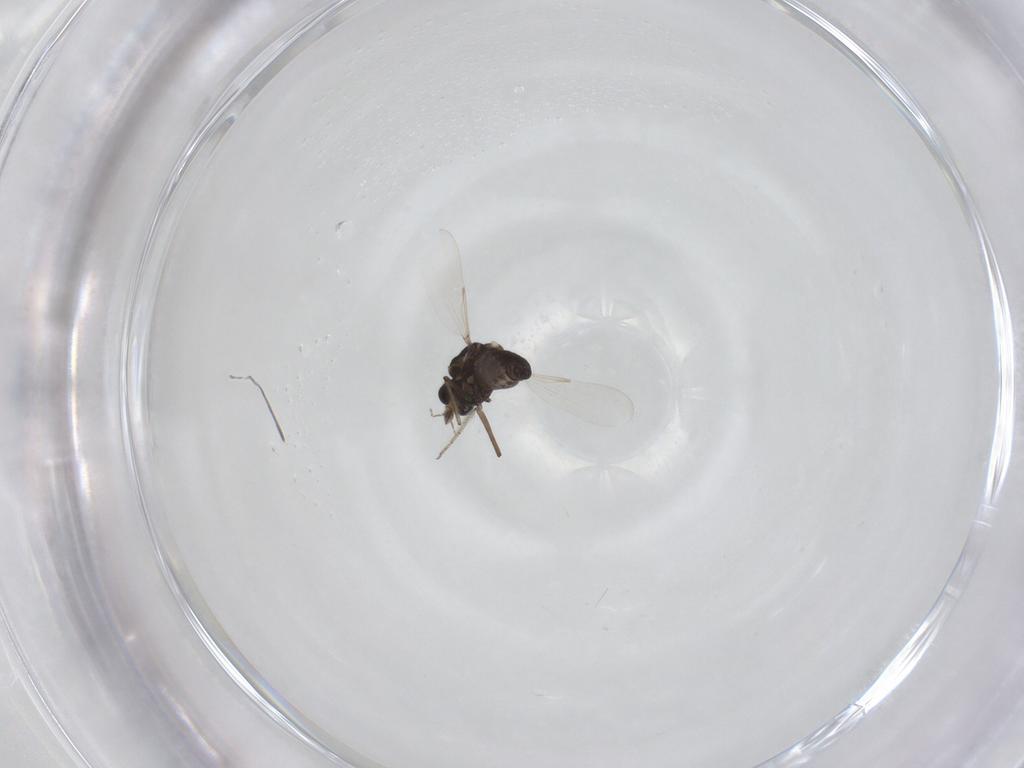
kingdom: Animalia
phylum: Arthropoda
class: Insecta
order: Diptera
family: Ceratopogonidae
